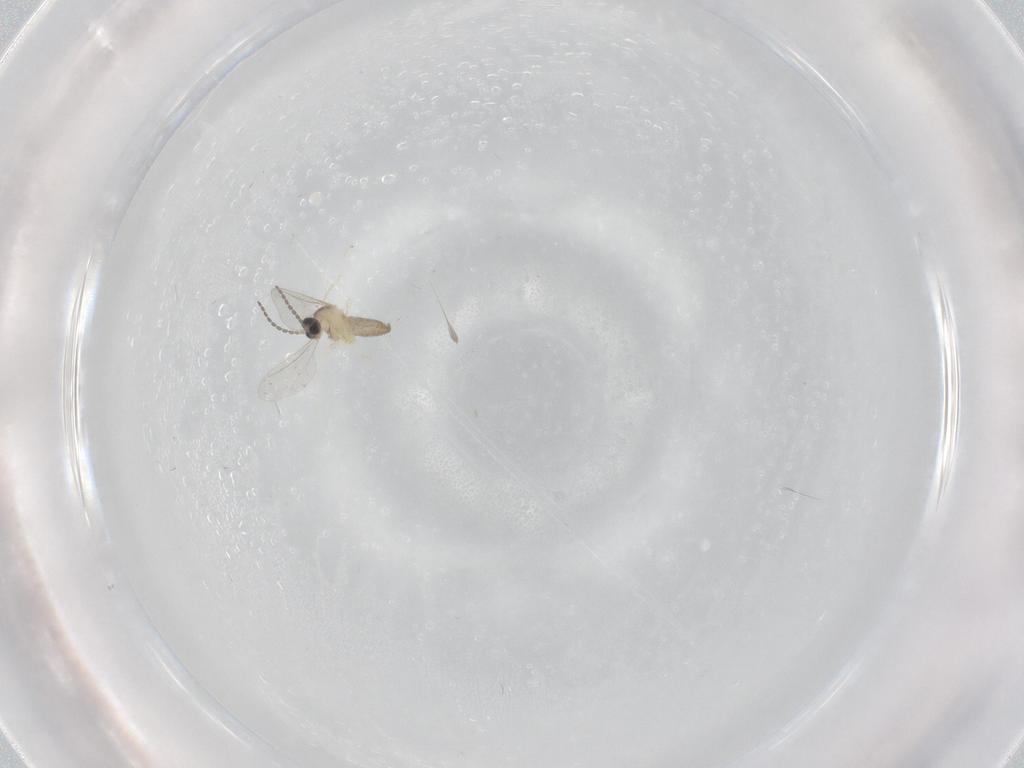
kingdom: Animalia
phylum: Arthropoda
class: Insecta
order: Diptera
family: Cecidomyiidae
